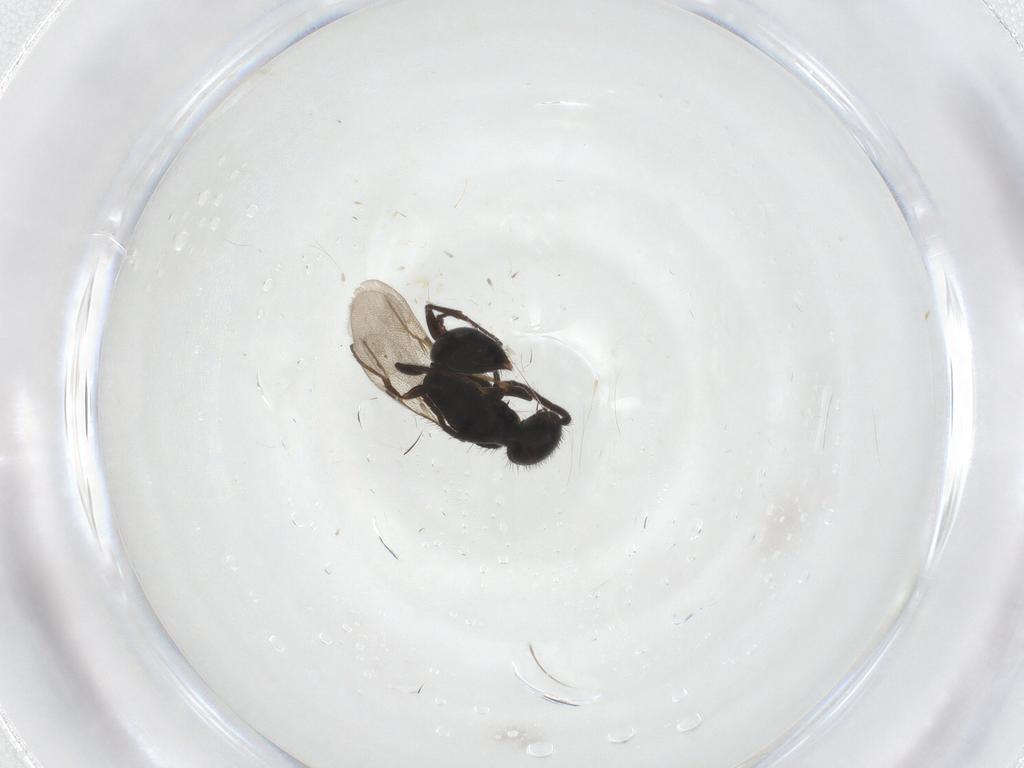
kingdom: Animalia
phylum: Arthropoda
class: Insecta
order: Hymenoptera
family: Bethylidae
